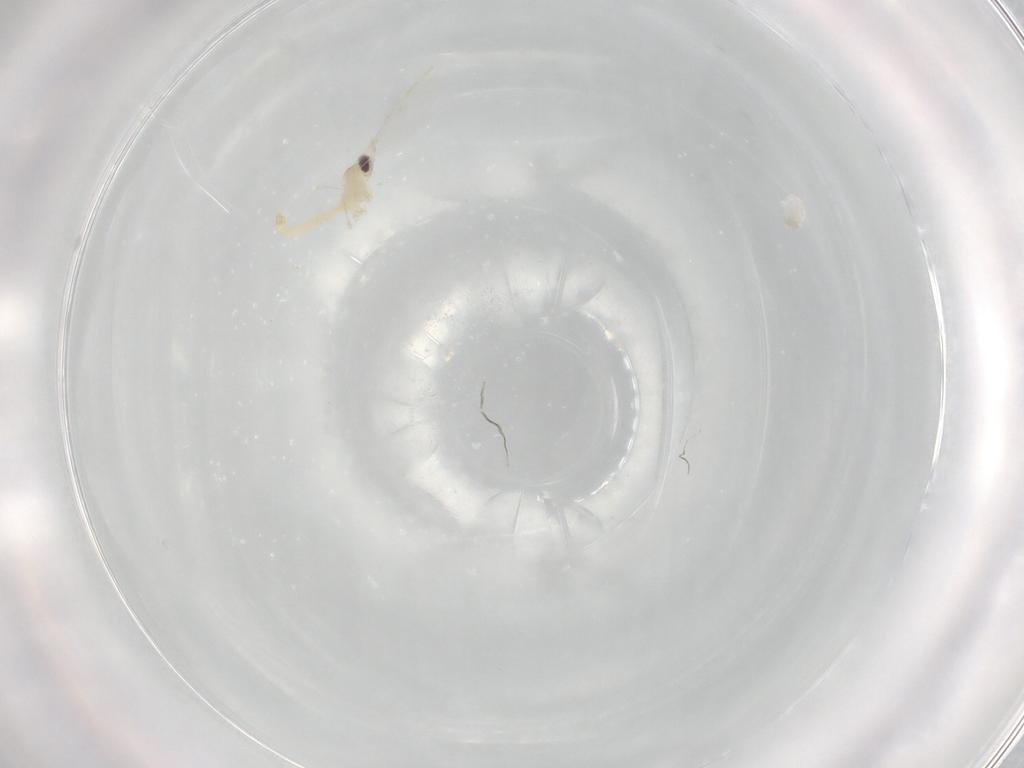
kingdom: Animalia
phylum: Arthropoda
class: Insecta
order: Diptera
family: Cecidomyiidae
